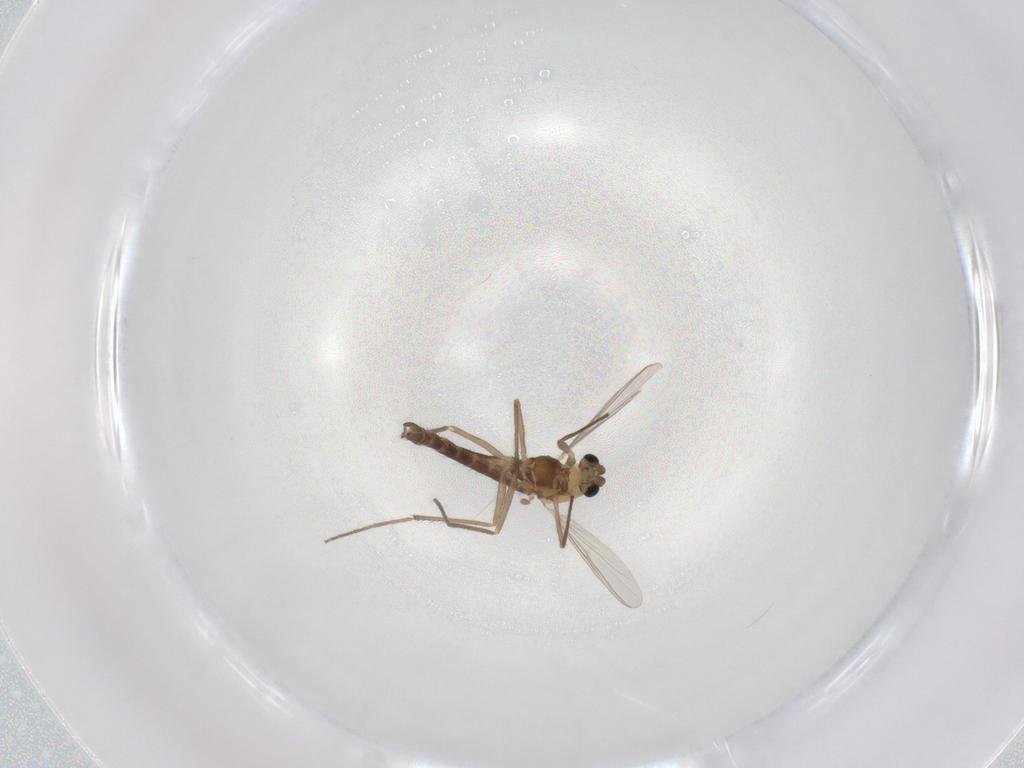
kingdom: Animalia
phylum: Arthropoda
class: Insecta
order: Diptera
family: Chironomidae
